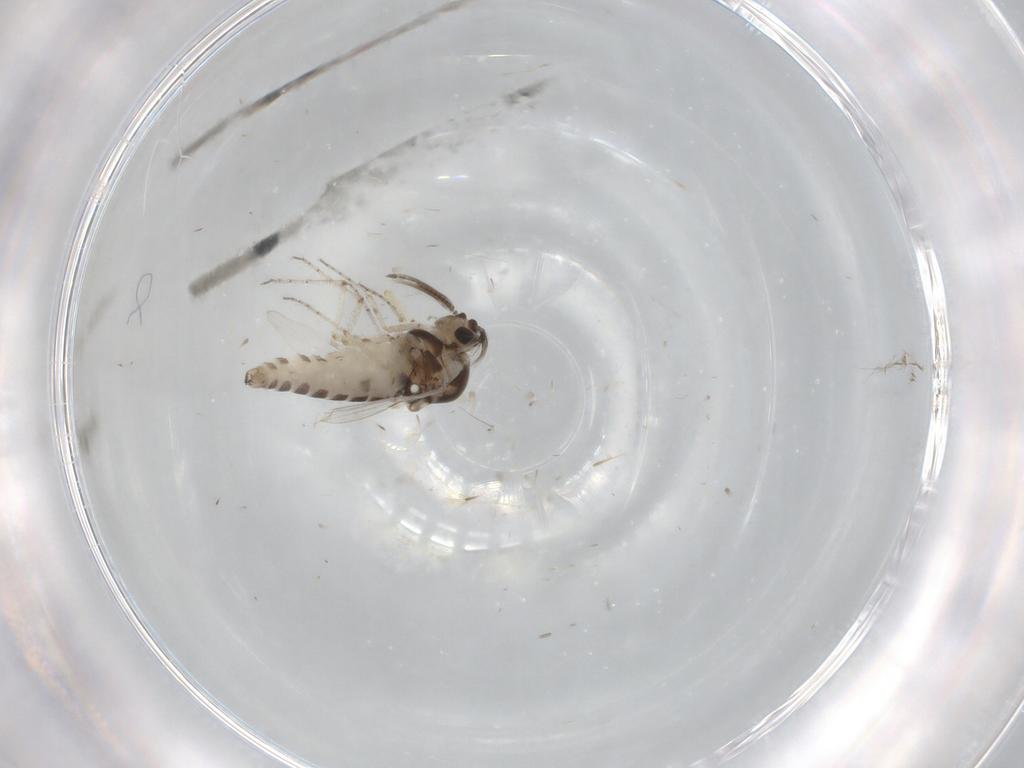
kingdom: Animalia
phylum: Arthropoda
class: Insecta
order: Diptera
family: Ceratopogonidae
